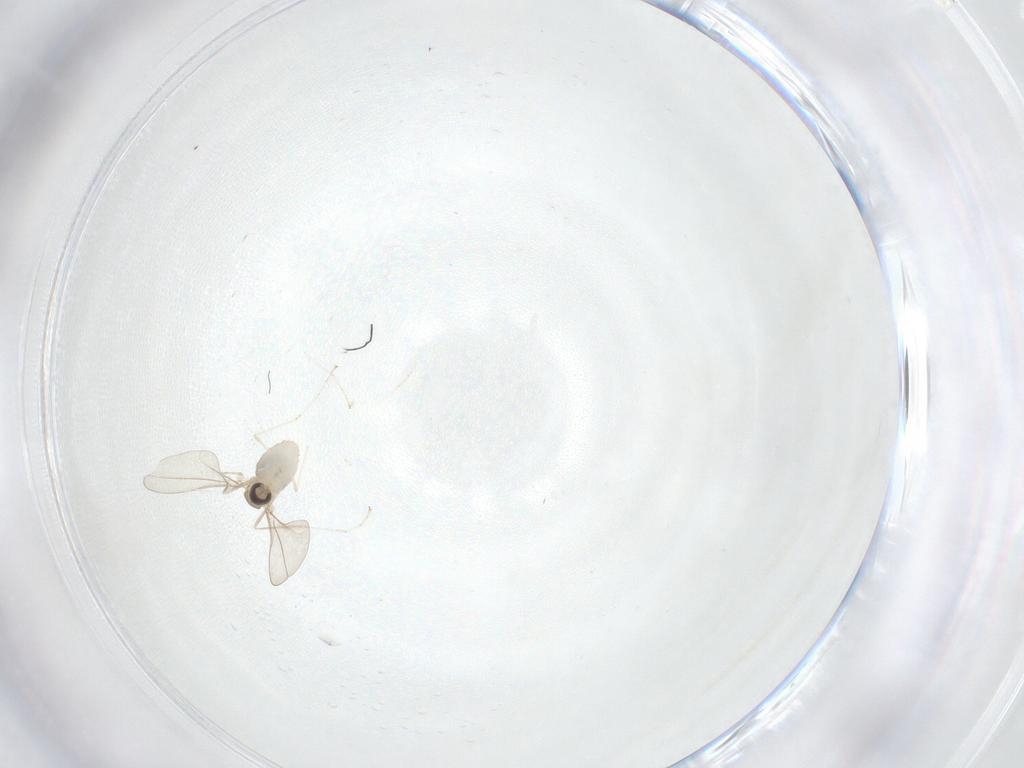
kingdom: Animalia
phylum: Arthropoda
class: Insecta
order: Diptera
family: Cecidomyiidae
